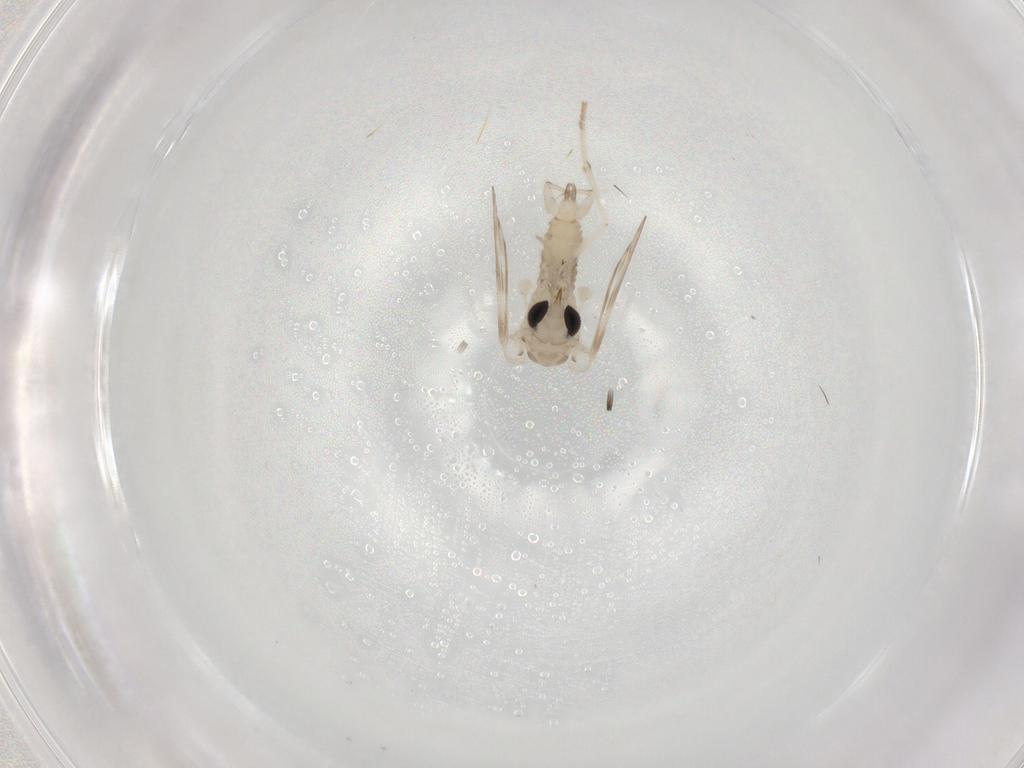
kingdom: Animalia
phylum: Arthropoda
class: Insecta
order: Diptera
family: Psychodidae
